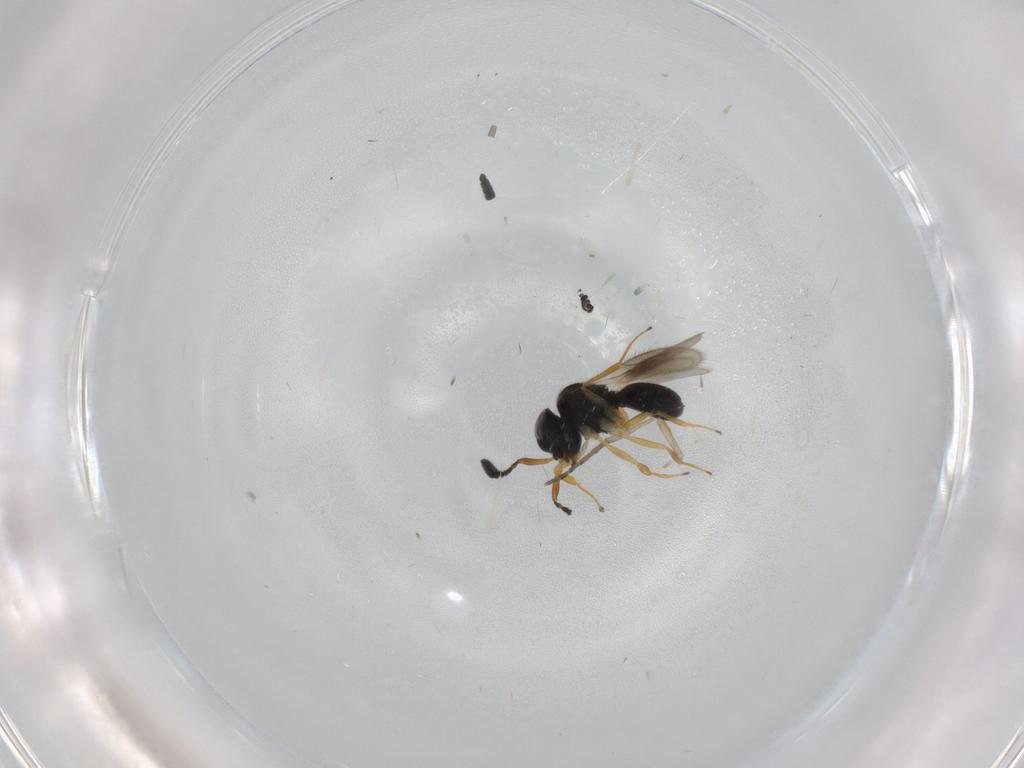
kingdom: Animalia
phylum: Arthropoda
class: Insecta
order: Hymenoptera
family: Scelionidae
